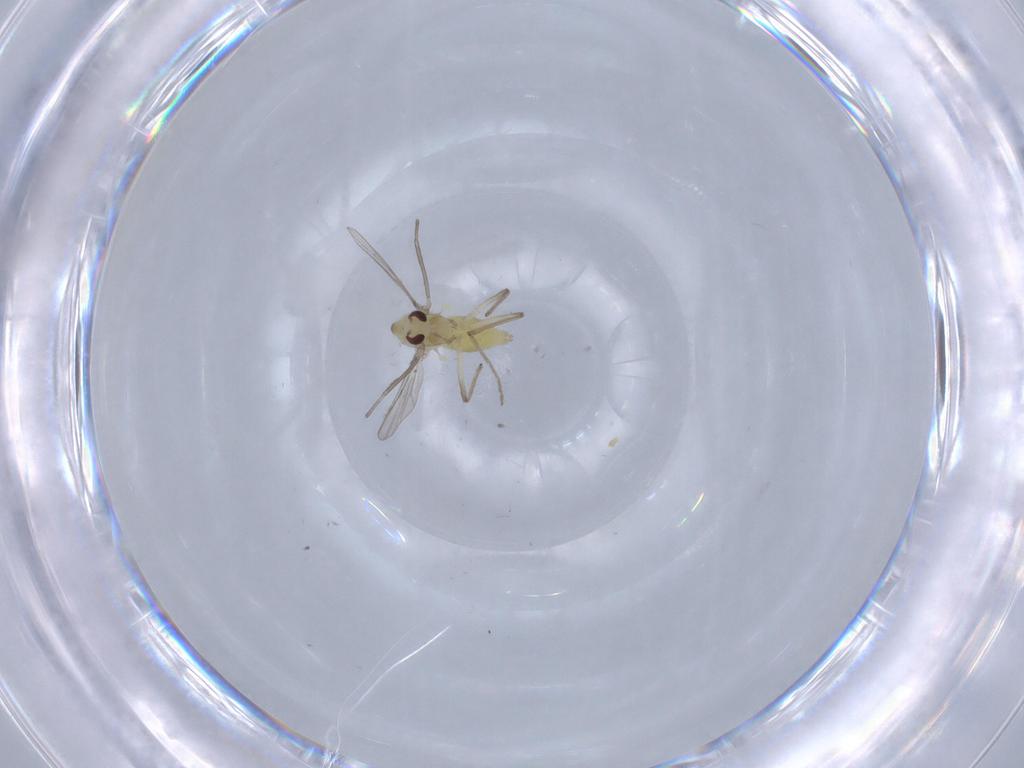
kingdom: Animalia
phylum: Arthropoda
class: Insecta
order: Diptera
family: Chironomidae
